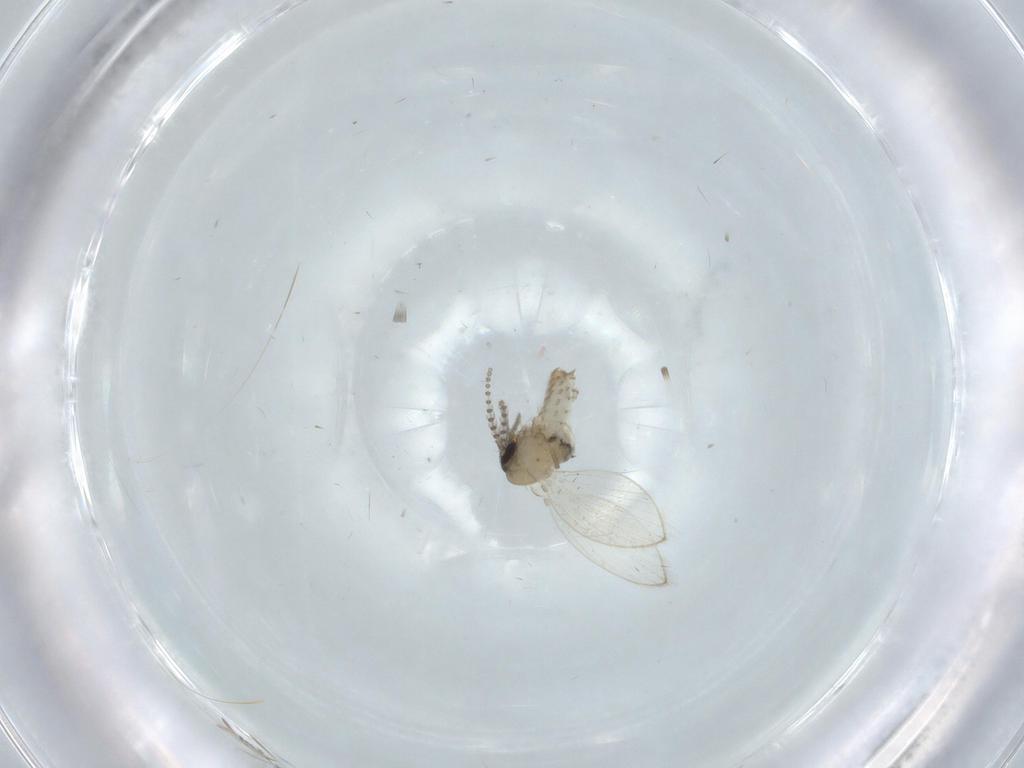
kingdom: Animalia
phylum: Arthropoda
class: Insecta
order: Diptera
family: Psychodidae
